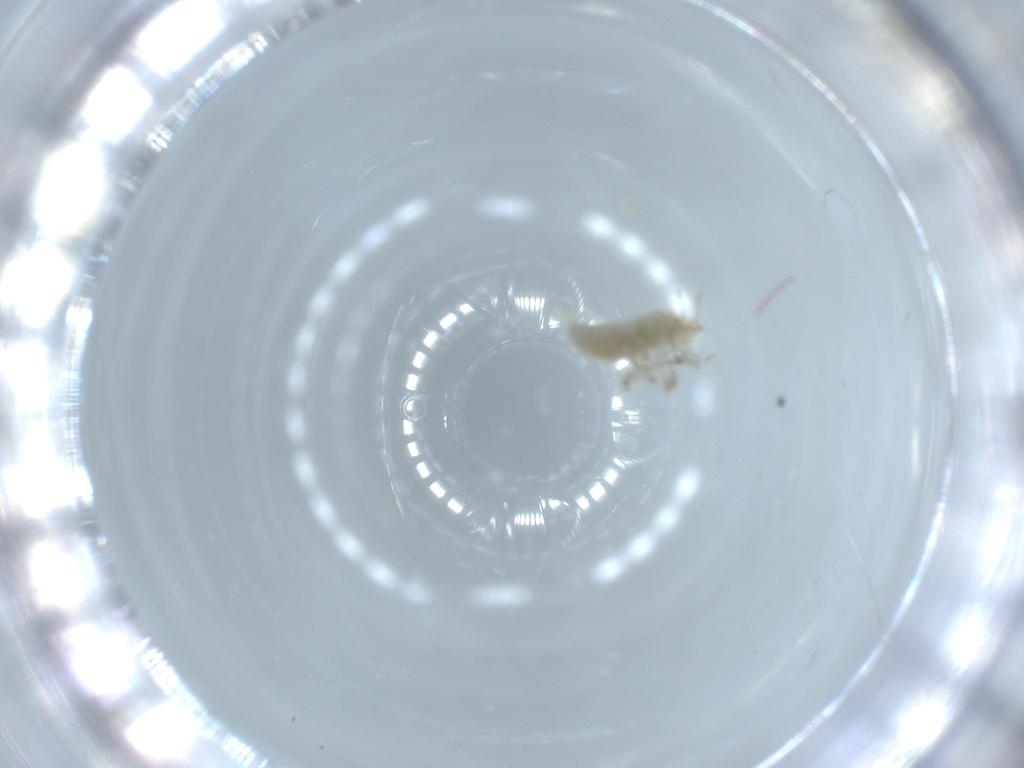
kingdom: Animalia
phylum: Arthropoda
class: Insecta
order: Neuroptera
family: Coniopterygidae
